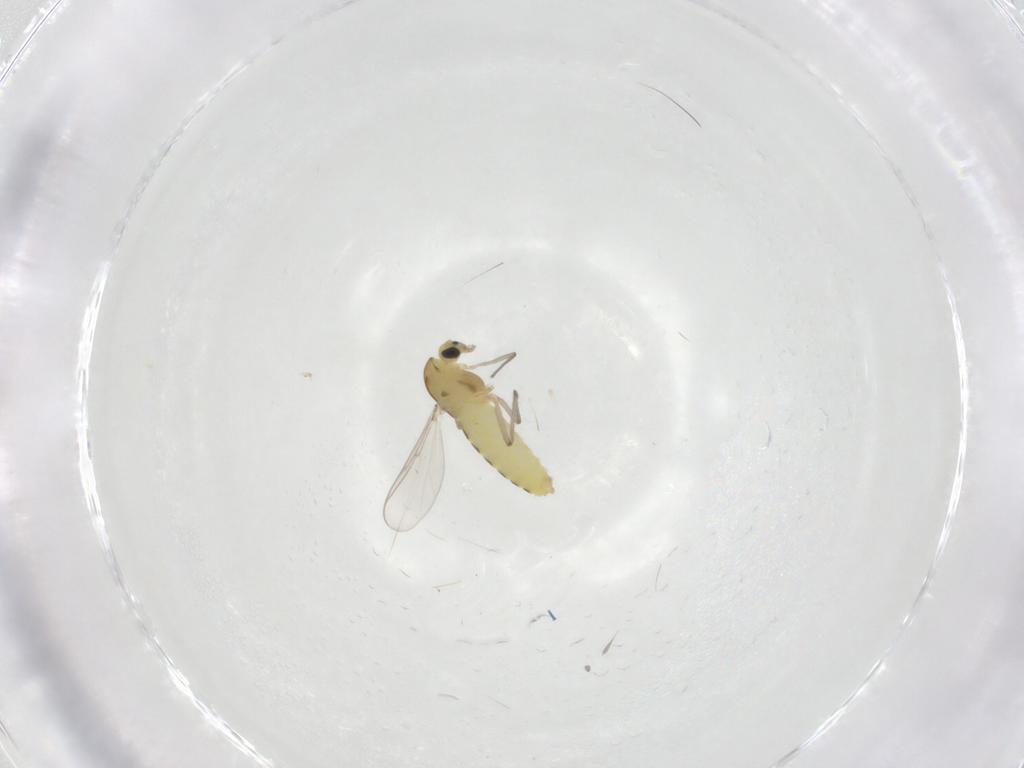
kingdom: Animalia
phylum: Arthropoda
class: Insecta
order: Diptera
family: Chironomidae
